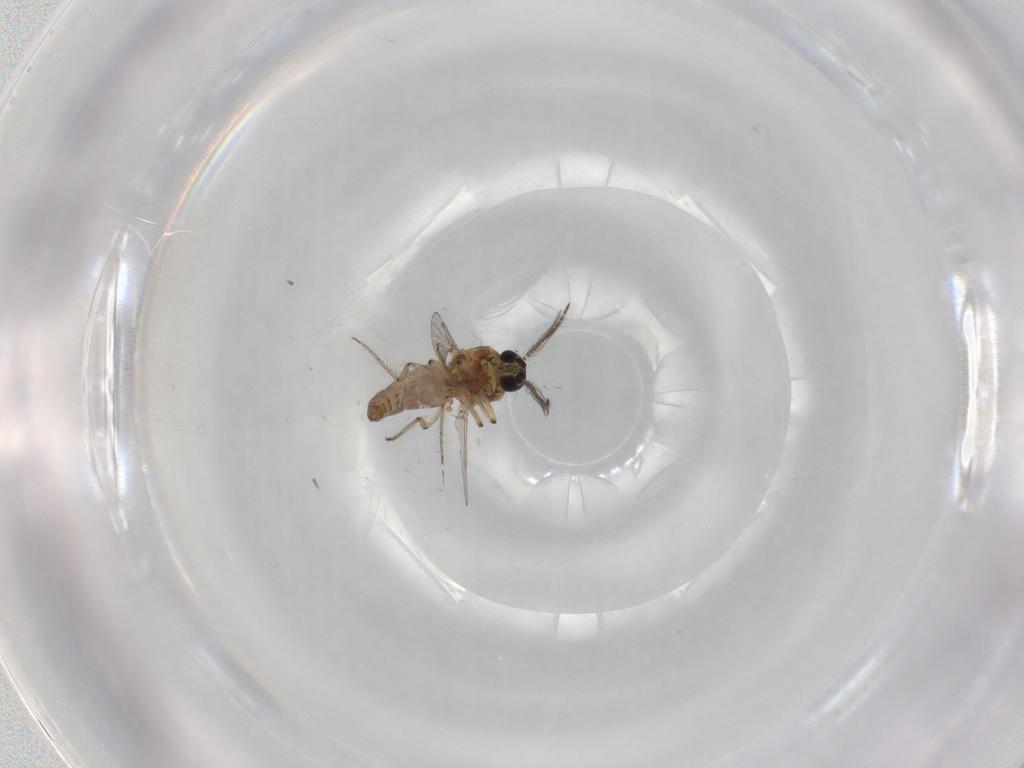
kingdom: Animalia
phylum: Arthropoda
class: Insecta
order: Diptera
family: Ceratopogonidae
